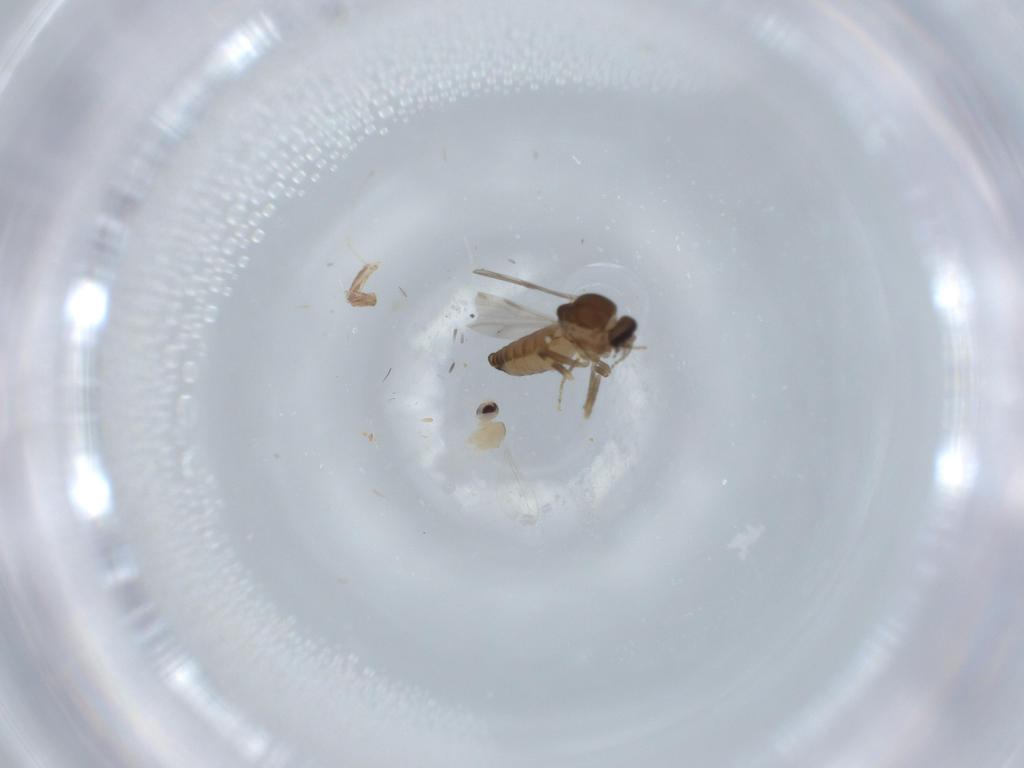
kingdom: Animalia
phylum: Arthropoda
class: Insecta
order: Diptera
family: Ceratopogonidae
